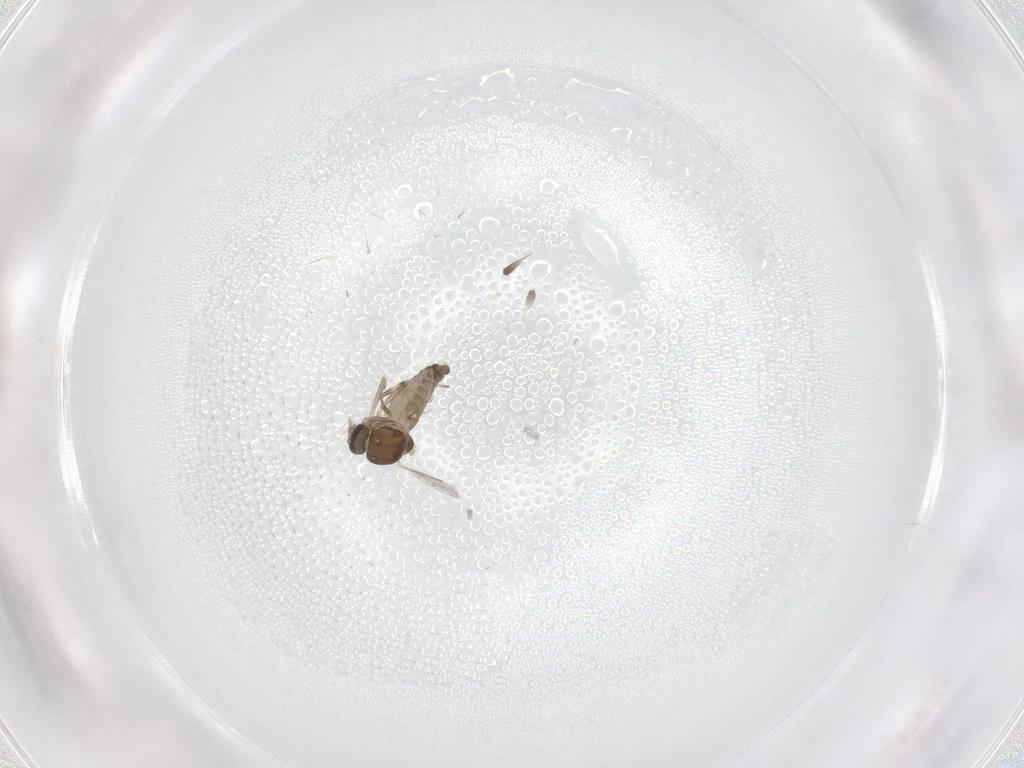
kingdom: Animalia
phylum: Arthropoda
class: Insecta
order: Diptera
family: Ceratopogonidae
